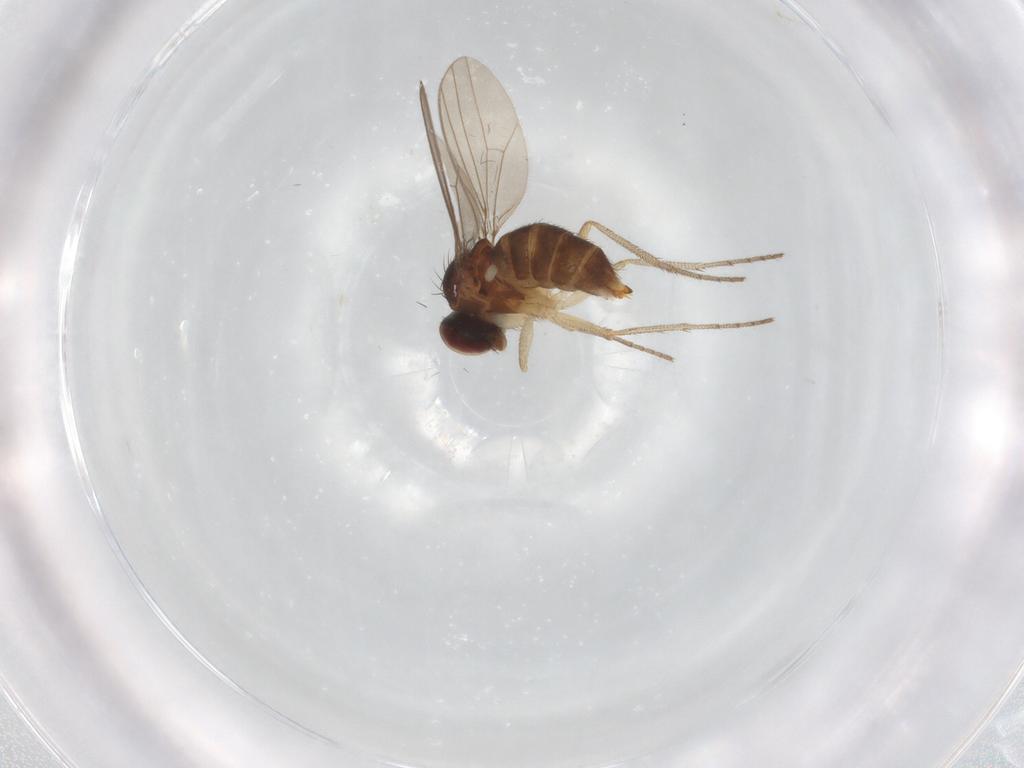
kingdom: Animalia
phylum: Arthropoda
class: Insecta
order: Diptera
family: Dolichopodidae
